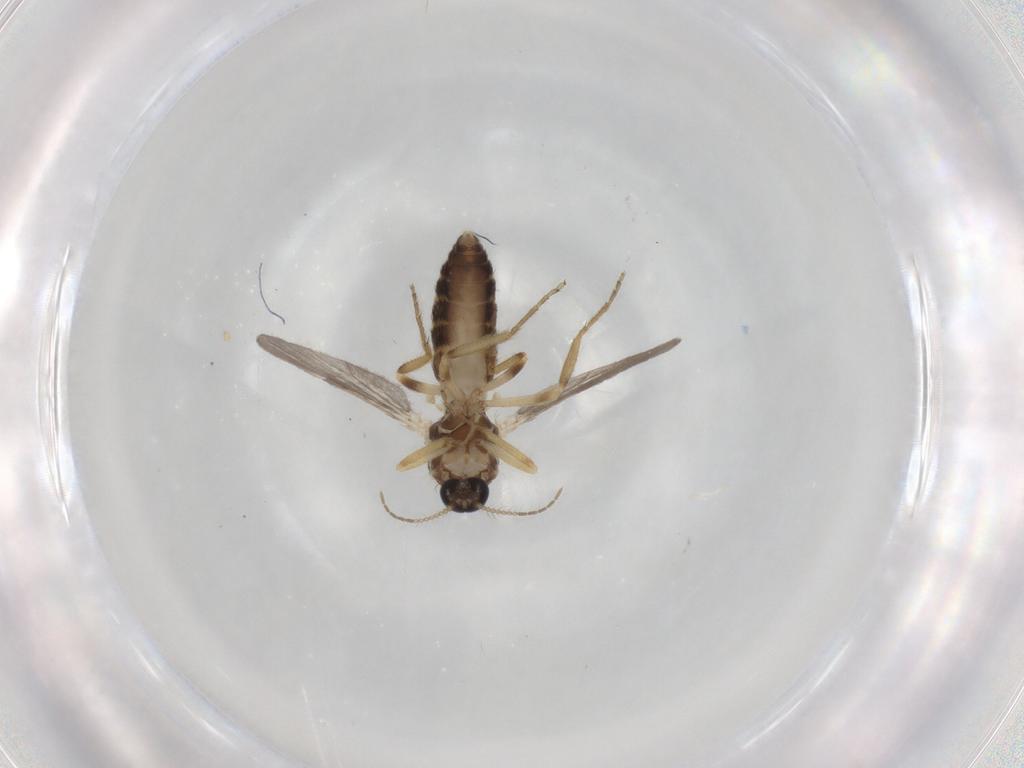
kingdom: Animalia
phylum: Arthropoda
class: Insecta
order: Diptera
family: Ceratopogonidae
